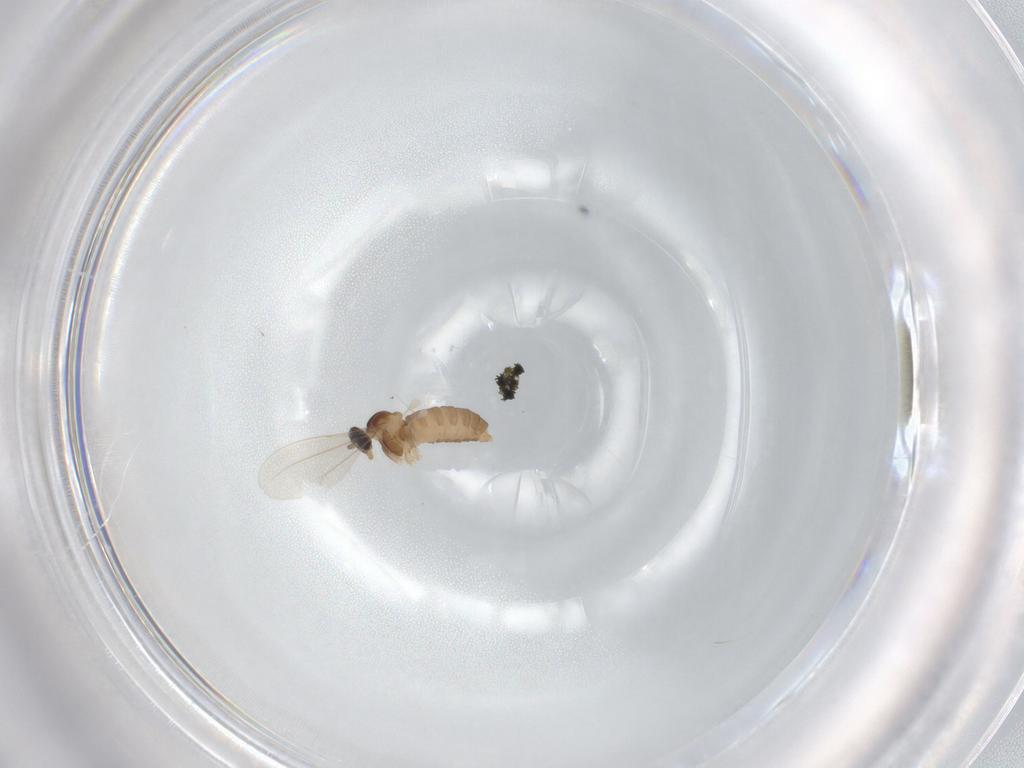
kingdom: Animalia
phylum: Arthropoda
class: Insecta
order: Diptera
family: Cecidomyiidae
